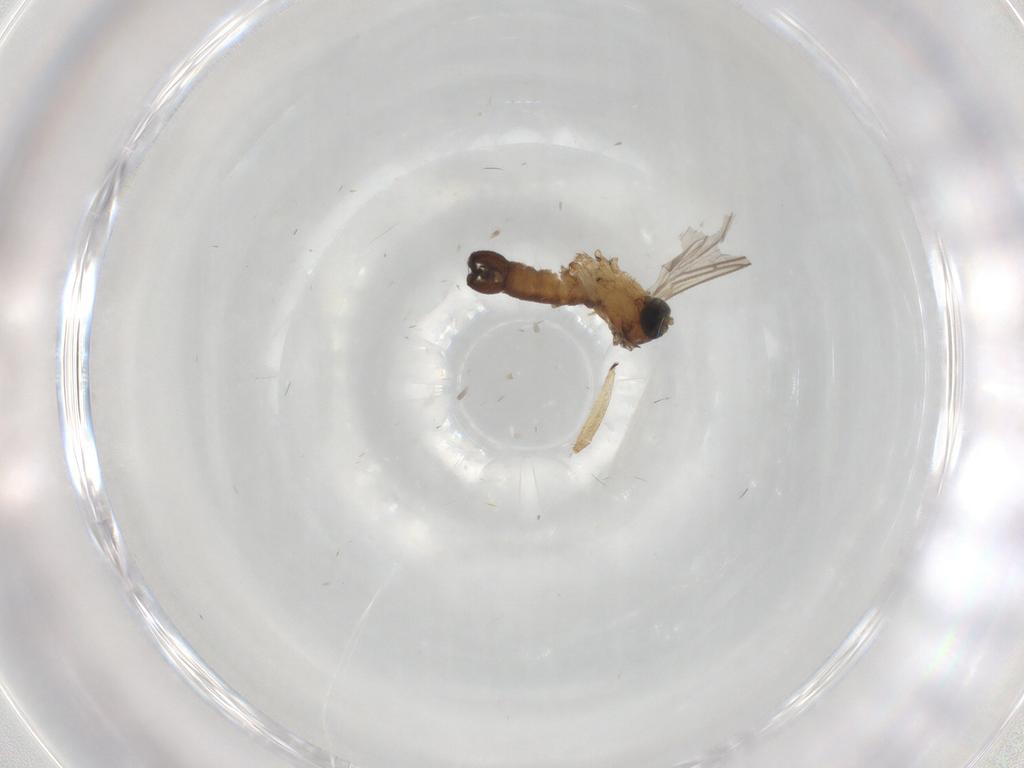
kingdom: Animalia
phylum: Arthropoda
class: Insecta
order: Diptera
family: Sciaridae
